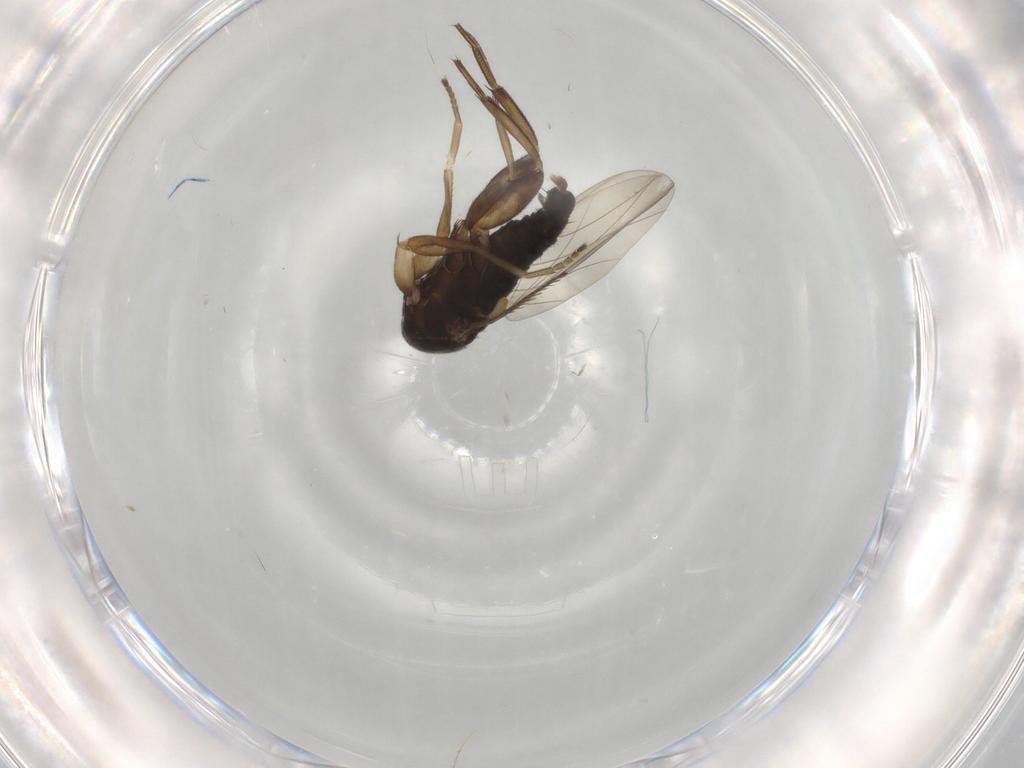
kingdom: Animalia
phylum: Arthropoda
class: Insecta
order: Diptera
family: Phoridae
